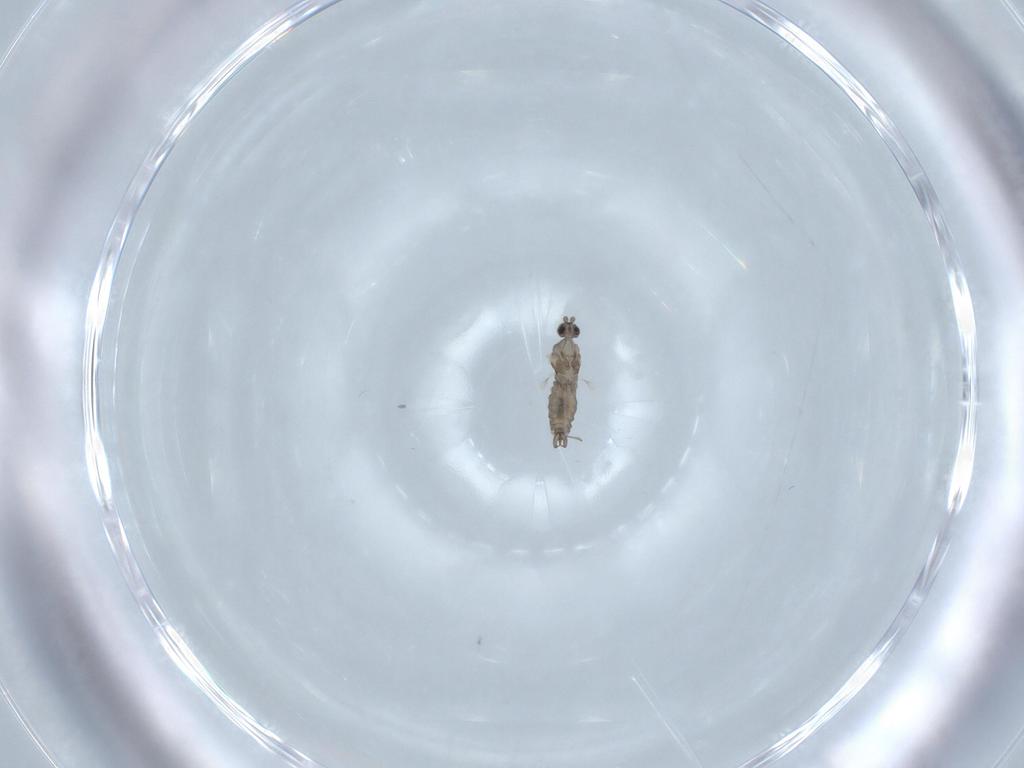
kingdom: Animalia
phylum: Arthropoda
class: Insecta
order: Diptera
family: Cecidomyiidae
